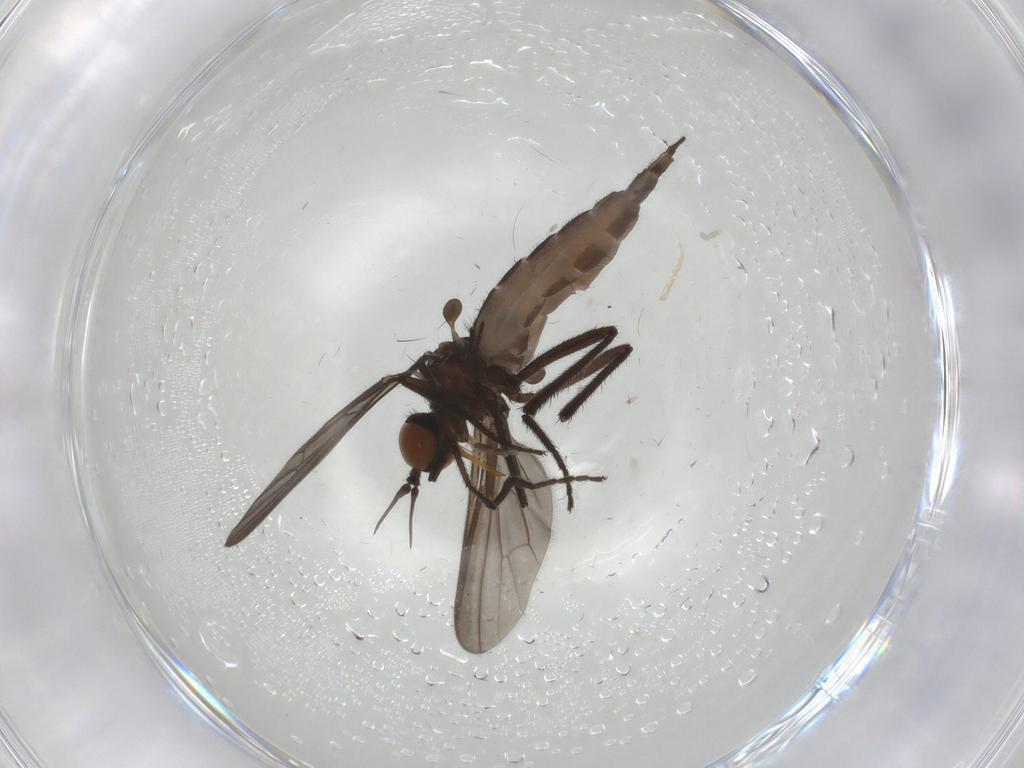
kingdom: Animalia
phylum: Arthropoda
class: Insecta
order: Diptera
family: Empididae
